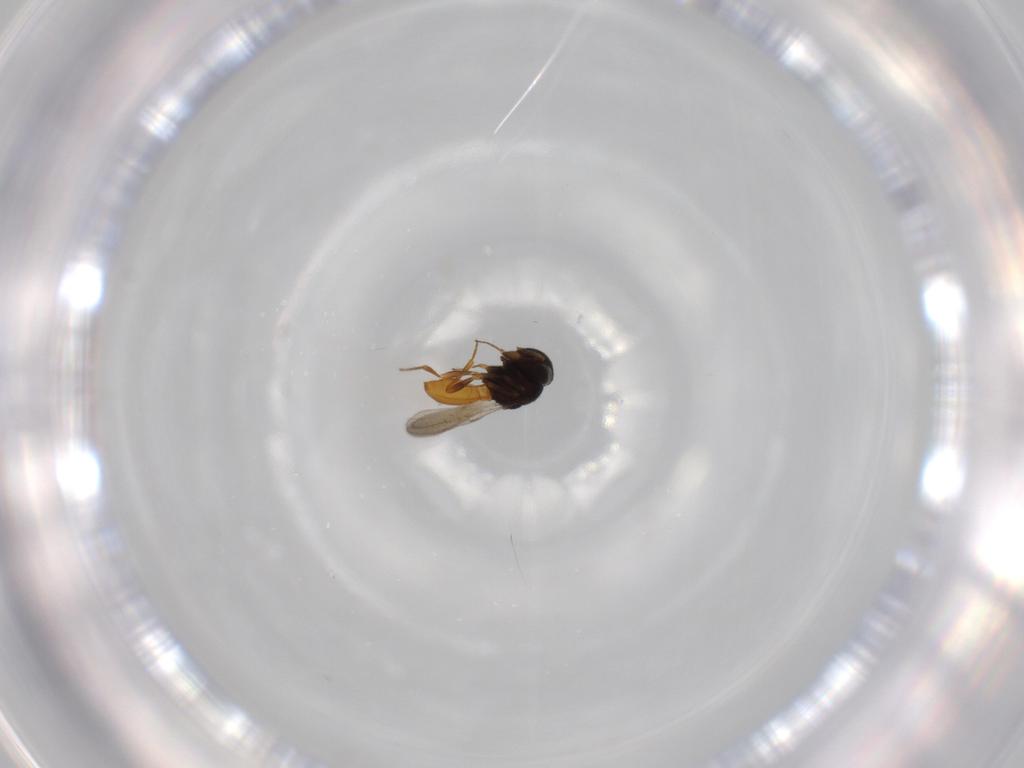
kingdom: Animalia
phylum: Arthropoda
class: Insecta
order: Hymenoptera
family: Scelionidae
